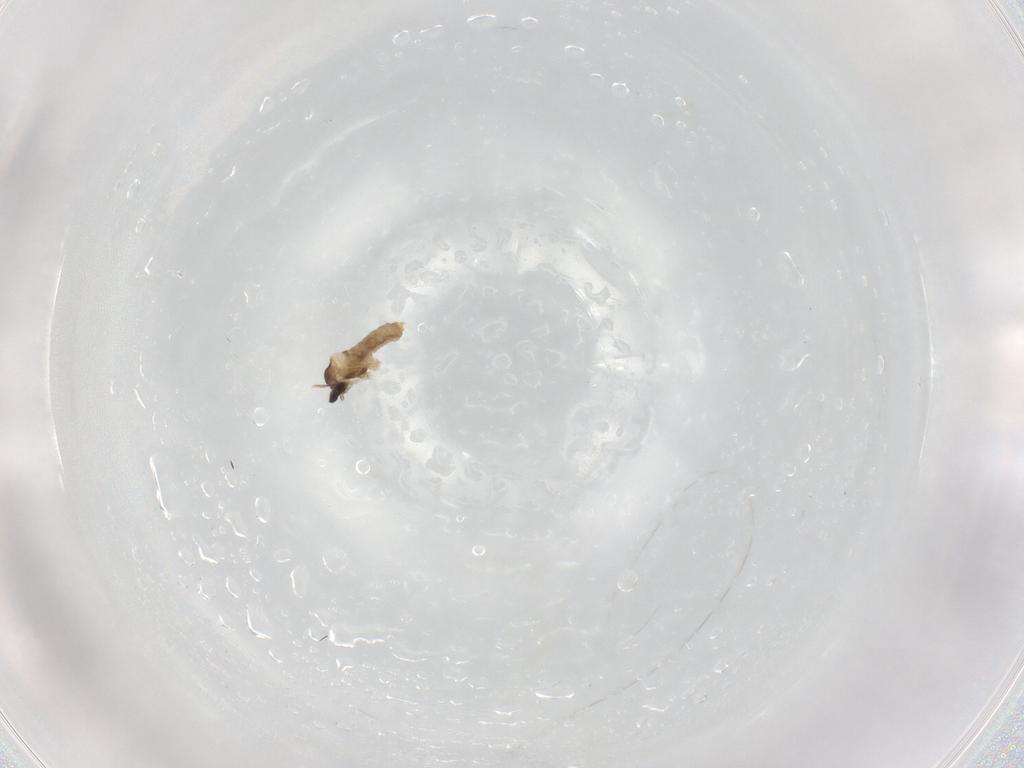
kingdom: Animalia
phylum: Arthropoda
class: Insecta
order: Diptera
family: Cecidomyiidae
